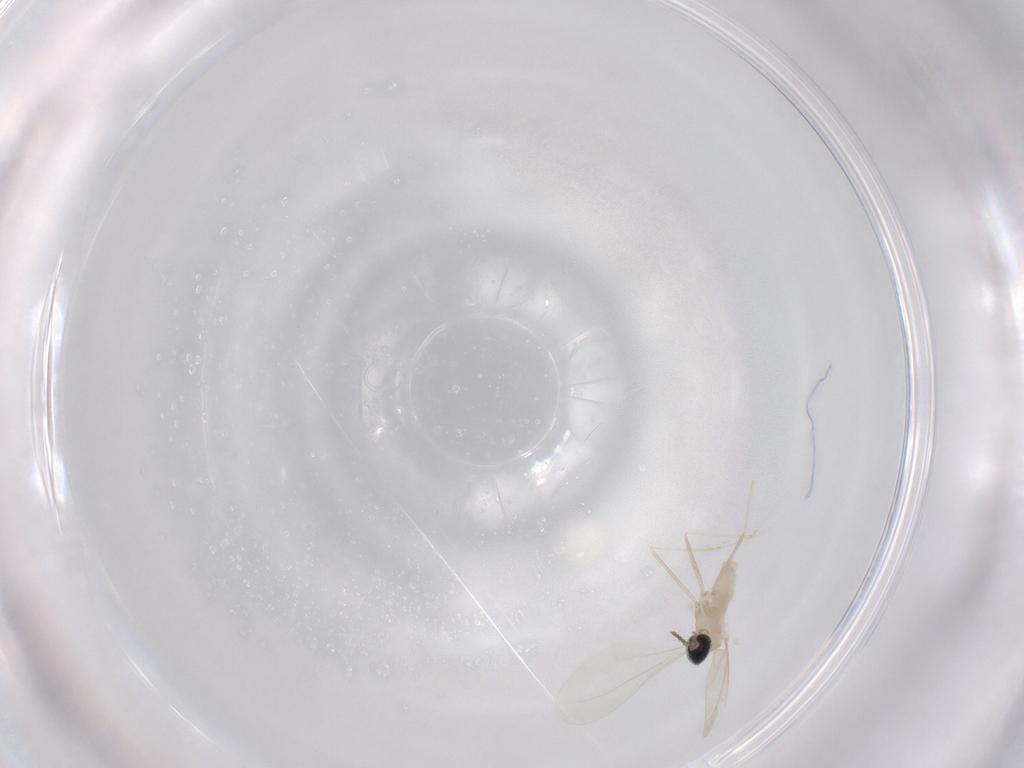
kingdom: Animalia
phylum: Arthropoda
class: Insecta
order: Diptera
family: Cecidomyiidae
